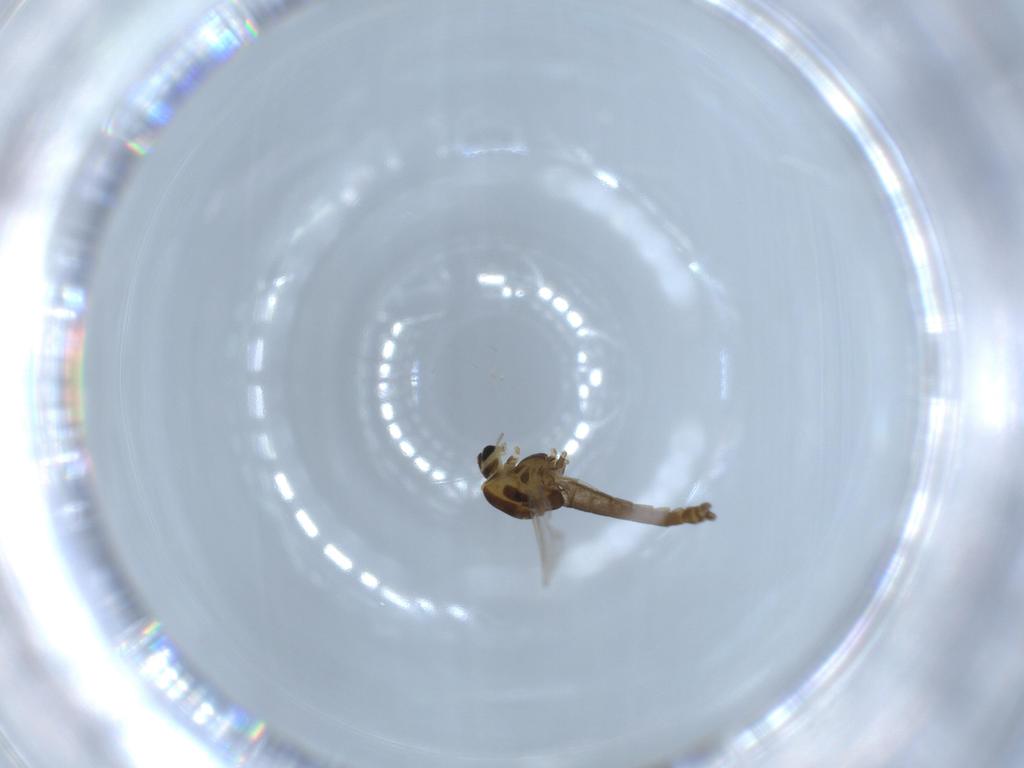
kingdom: Animalia
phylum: Arthropoda
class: Insecta
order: Diptera
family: Chironomidae
